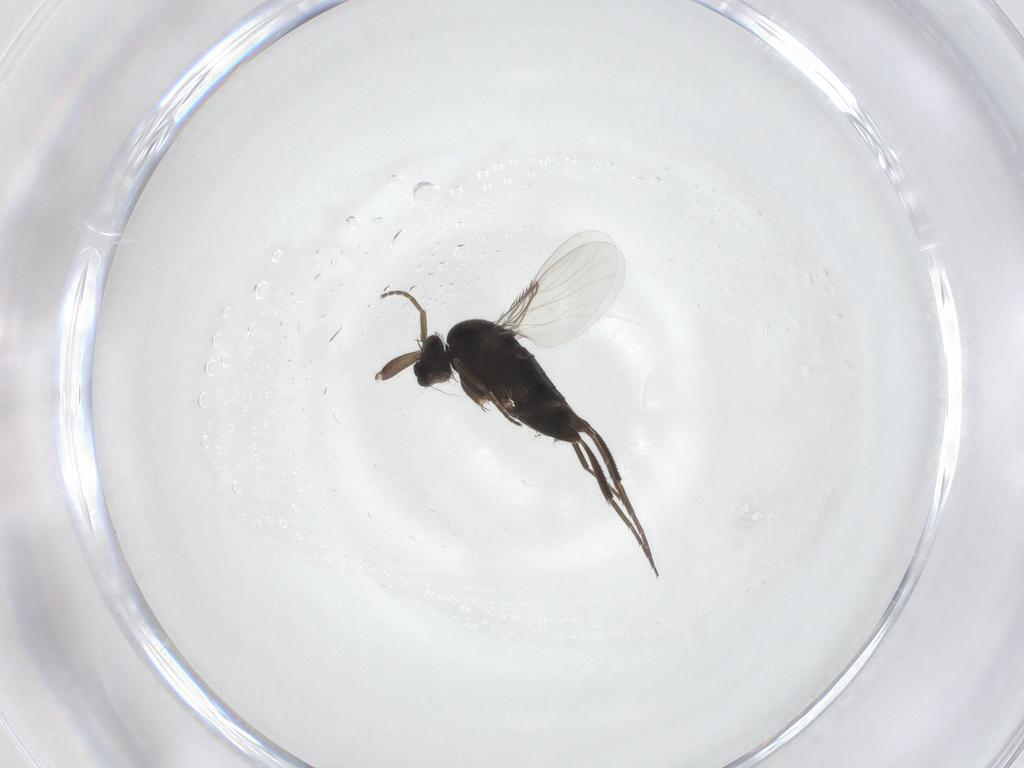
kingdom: Animalia
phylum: Arthropoda
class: Insecta
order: Diptera
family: Phoridae
